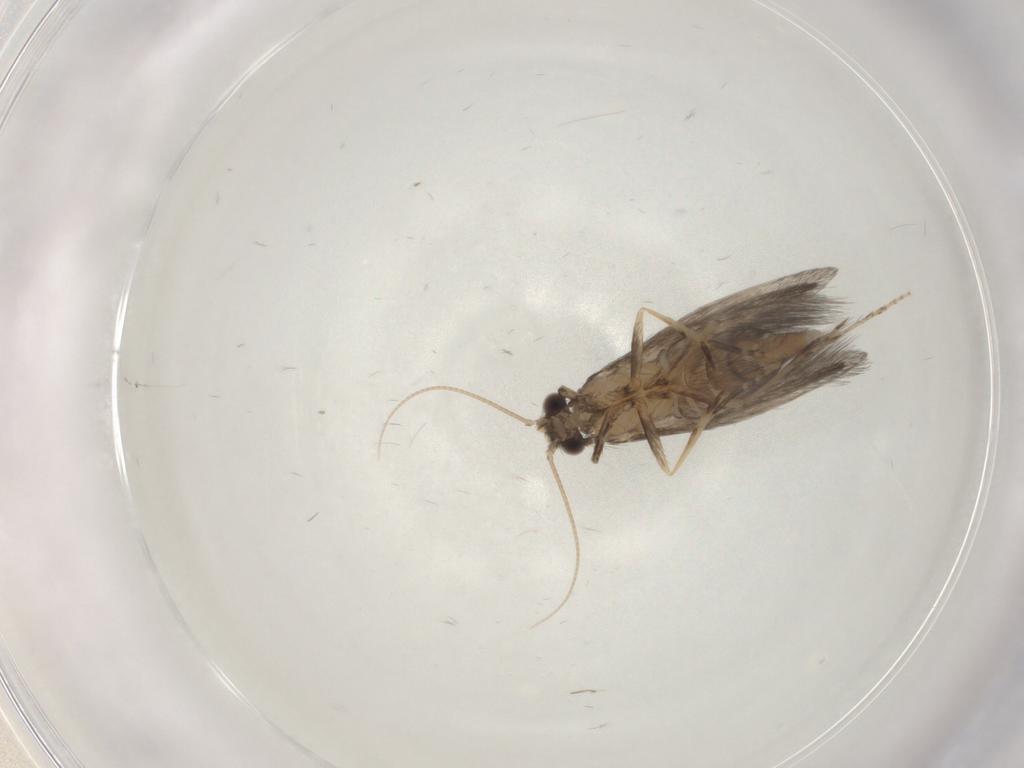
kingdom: Animalia
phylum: Arthropoda
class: Insecta
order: Trichoptera
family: Hydroptilidae
